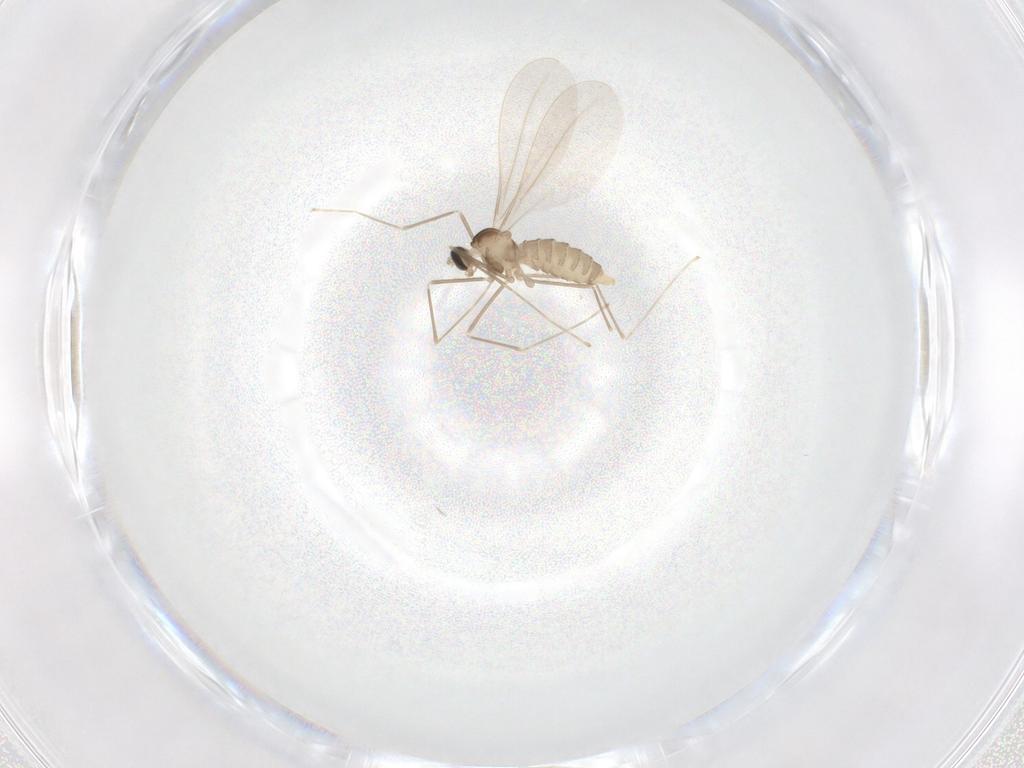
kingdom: Animalia
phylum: Arthropoda
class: Insecta
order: Diptera
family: Cecidomyiidae
